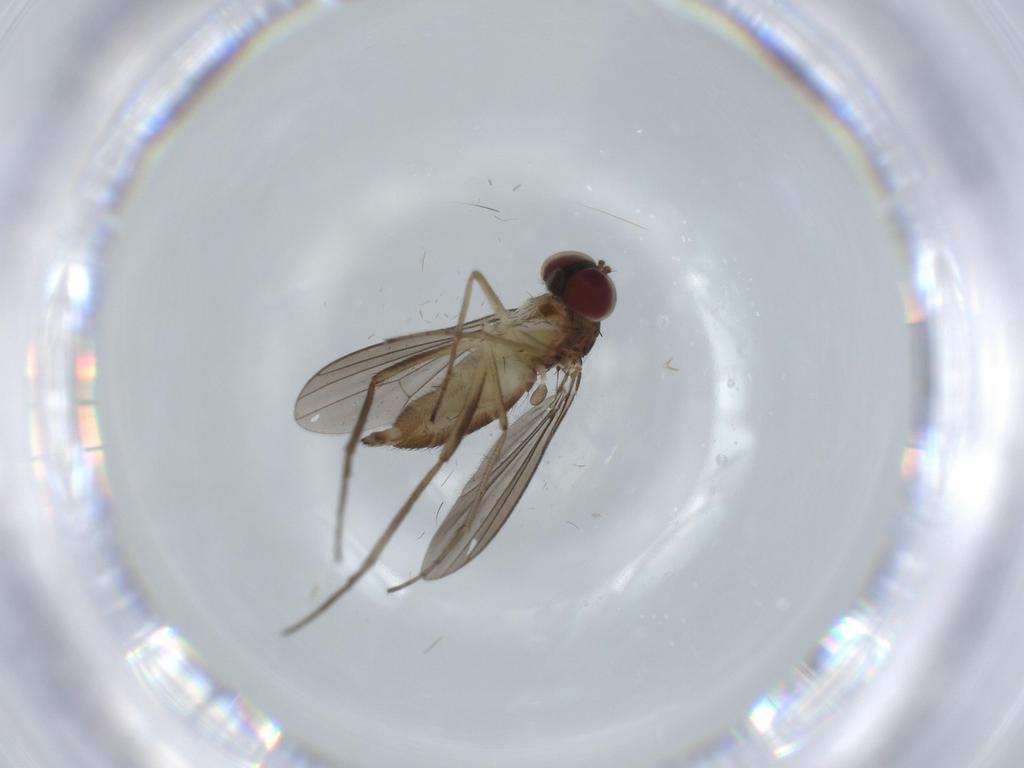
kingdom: Animalia
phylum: Arthropoda
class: Insecta
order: Diptera
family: Dolichopodidae
